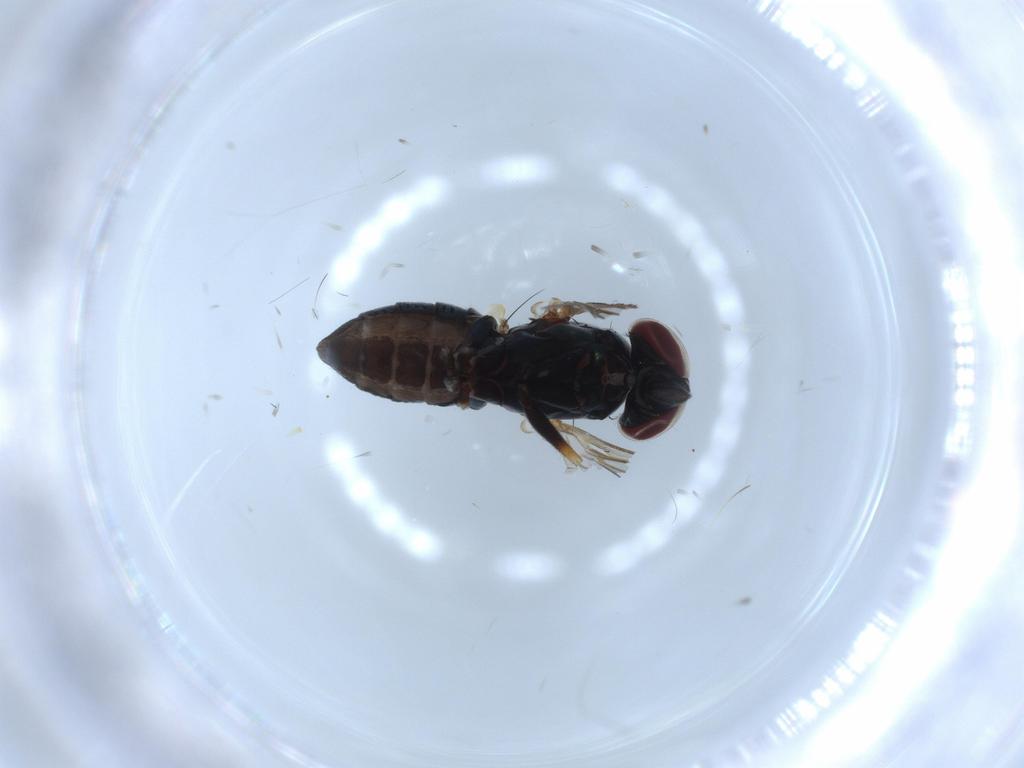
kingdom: Animalia
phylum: Arthropoda
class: Insecta
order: Diptera
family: Dolichopodidae
